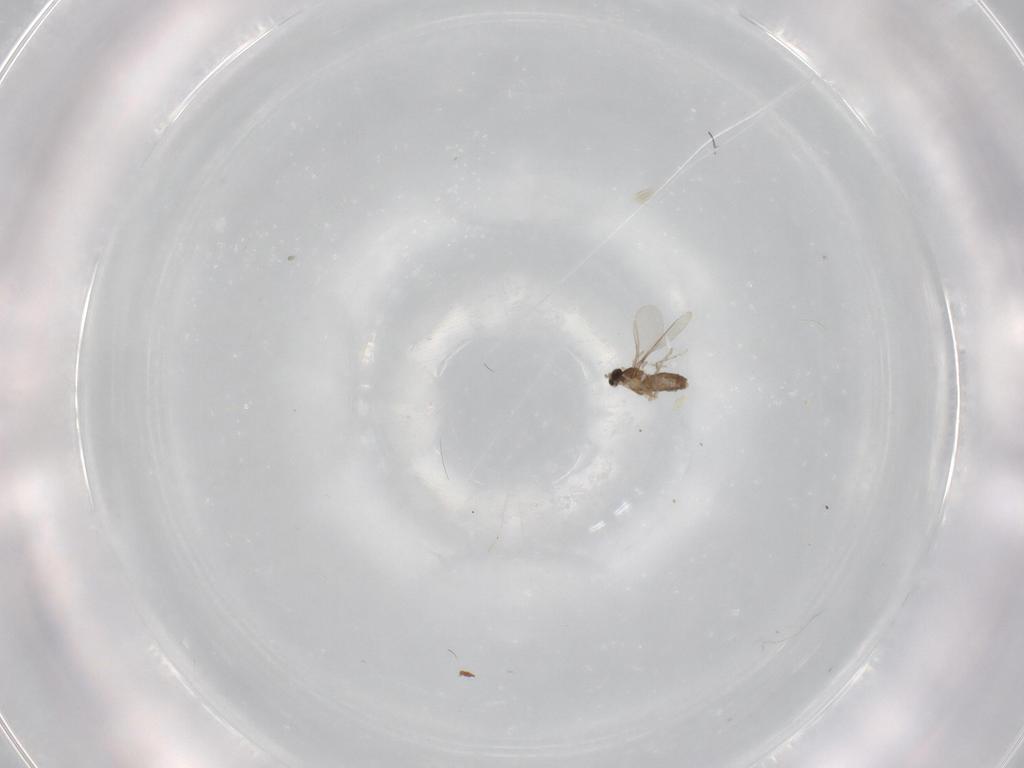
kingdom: Animalia
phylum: Arthropoda
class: Insecta
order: Diptera
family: Cecidomyiidae
